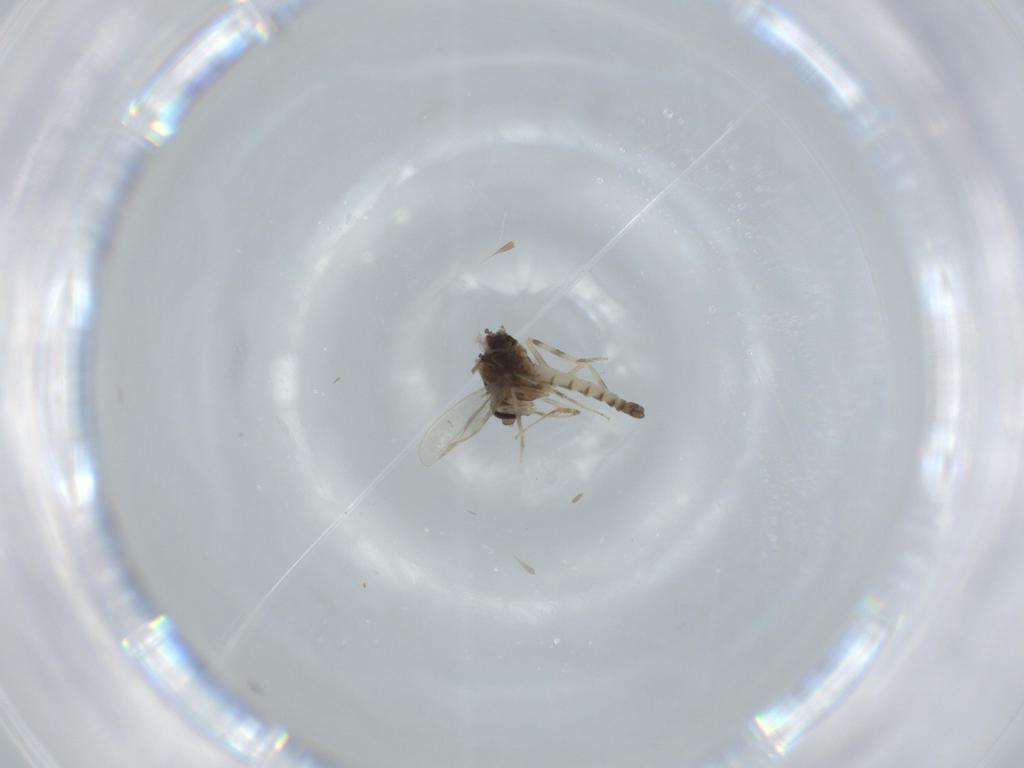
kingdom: Animalia
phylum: Arthropoda
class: Insecta
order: Diptera
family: Ceratopogonidae
